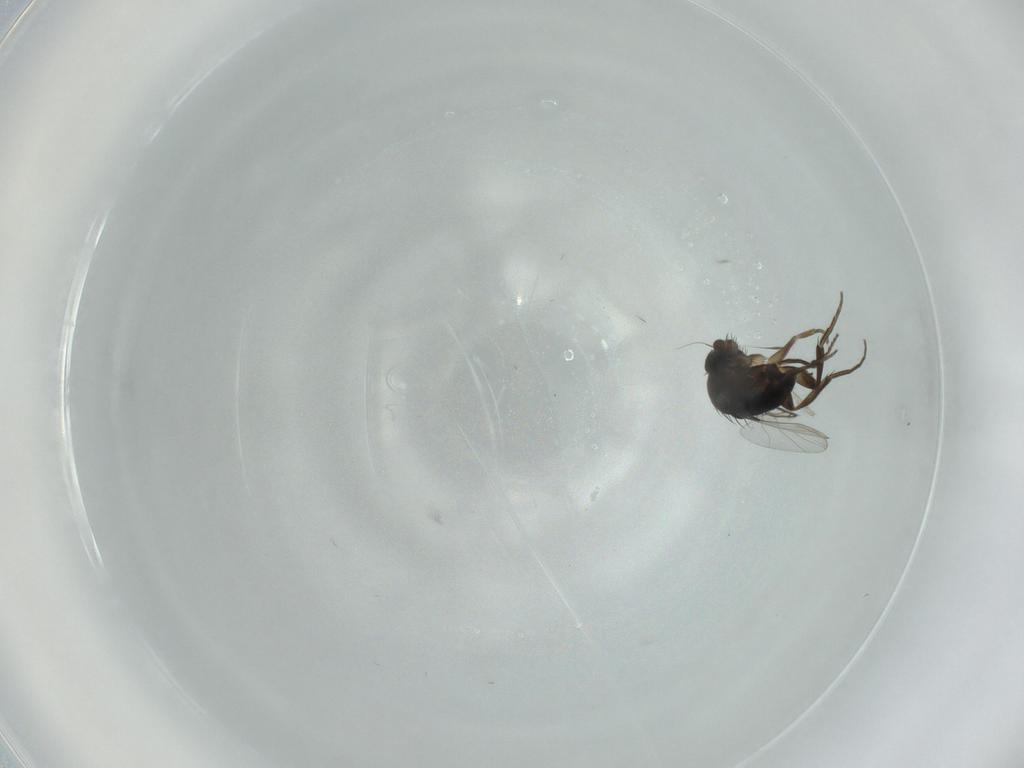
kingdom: Animalia
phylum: Arthropoda
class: Insecta
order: Diptera
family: Phoridae
